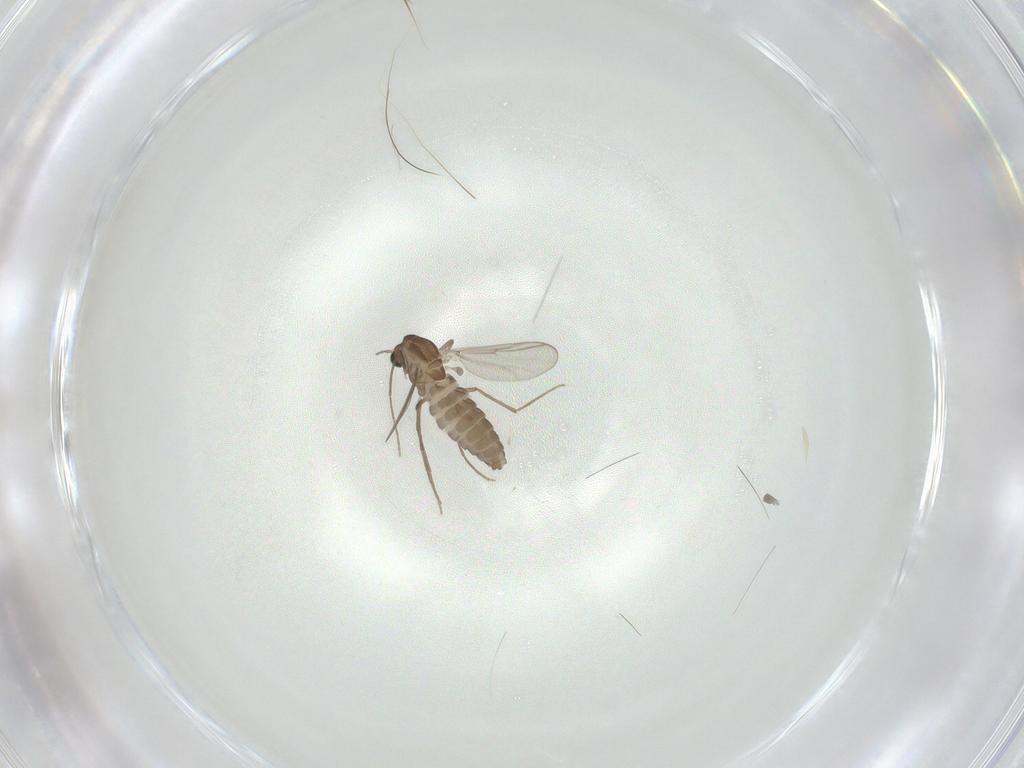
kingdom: Animalia
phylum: Arthropoda
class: Insecta
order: Diptera
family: Chironomidae
